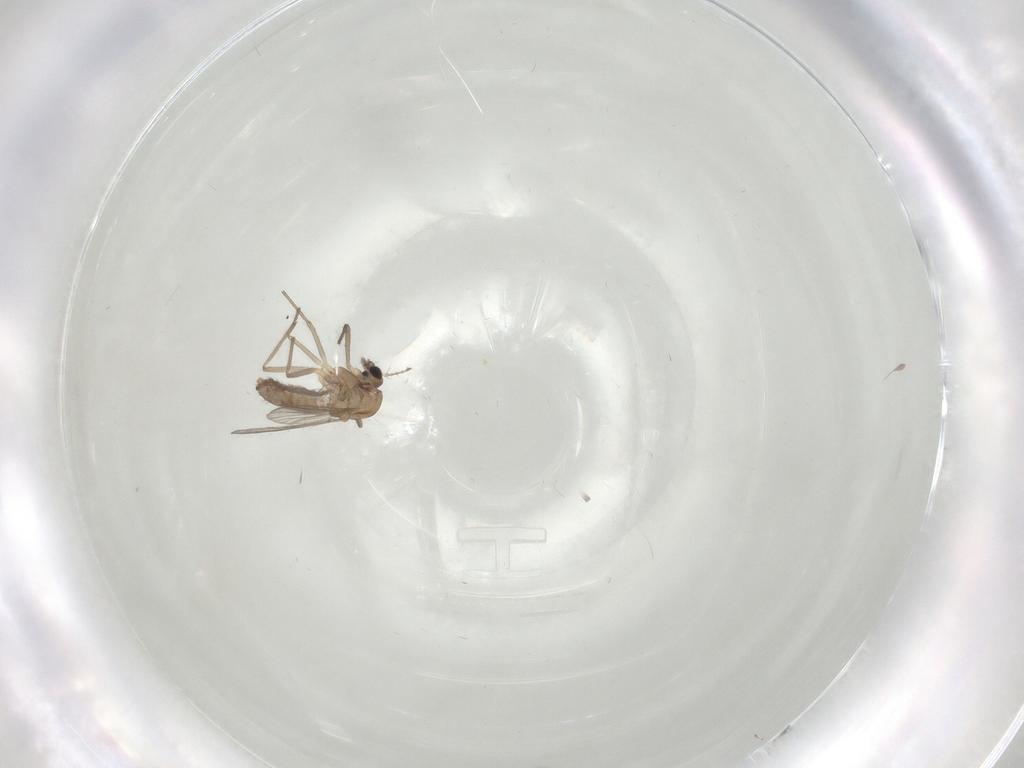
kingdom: Animalia
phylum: Arthropoda
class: Insecta
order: Diptera
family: Chironomidae
